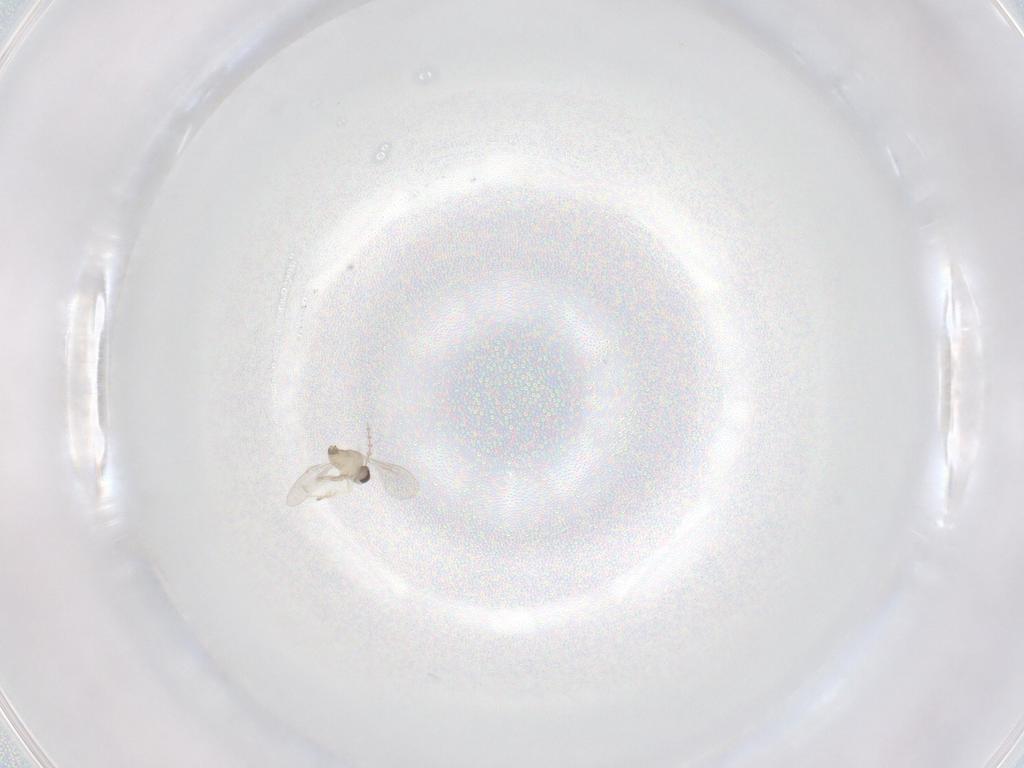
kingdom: Animalia
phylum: Arthropoda
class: Insecta
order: Diptera
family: Cecidomyiidae
